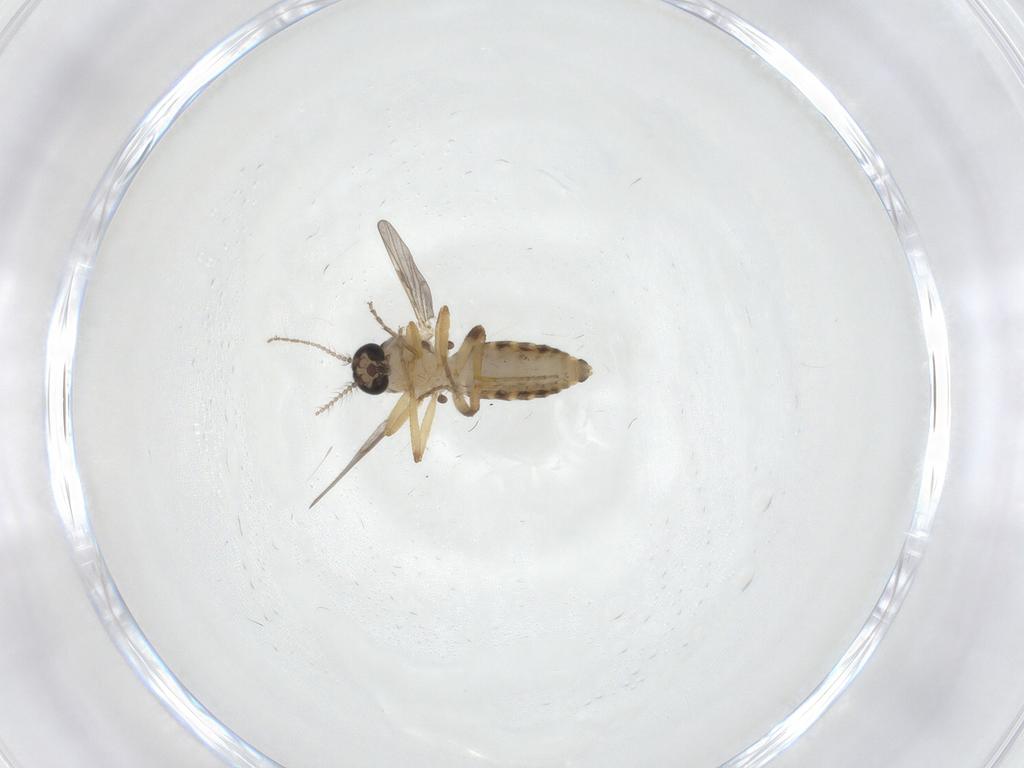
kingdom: Animalia
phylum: Arthropoda
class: Insecta
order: Diptera
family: Ceratopogonidae
